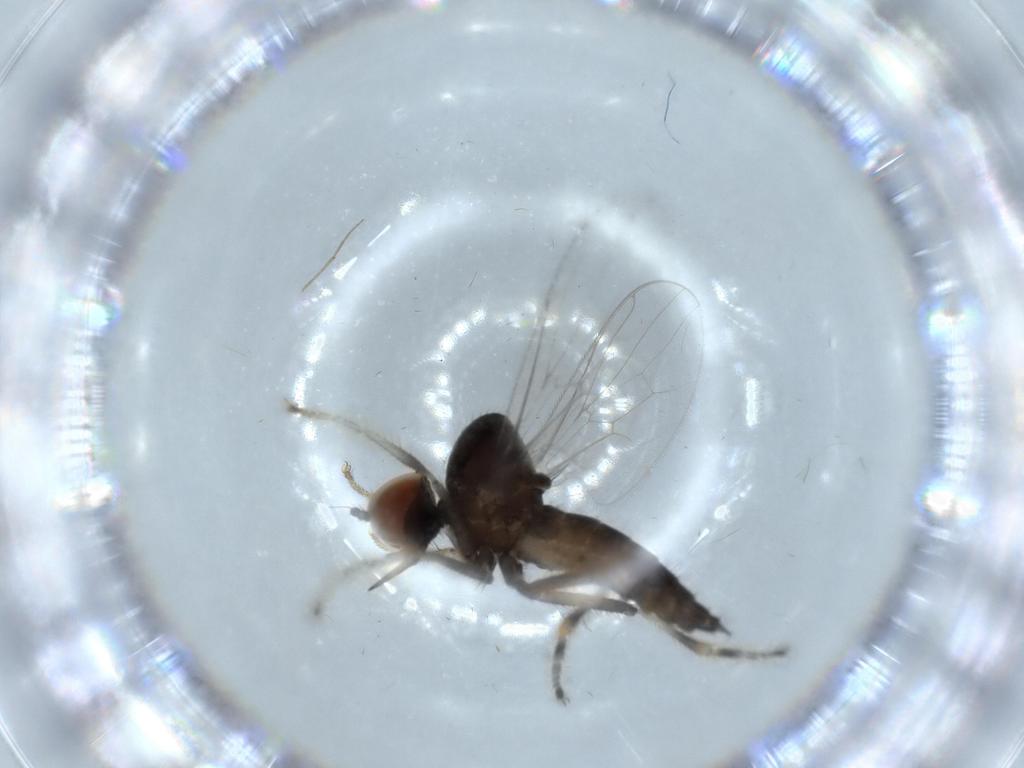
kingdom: Animalia
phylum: Arthropoda
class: Insecta
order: Diptera
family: Hybotidae
